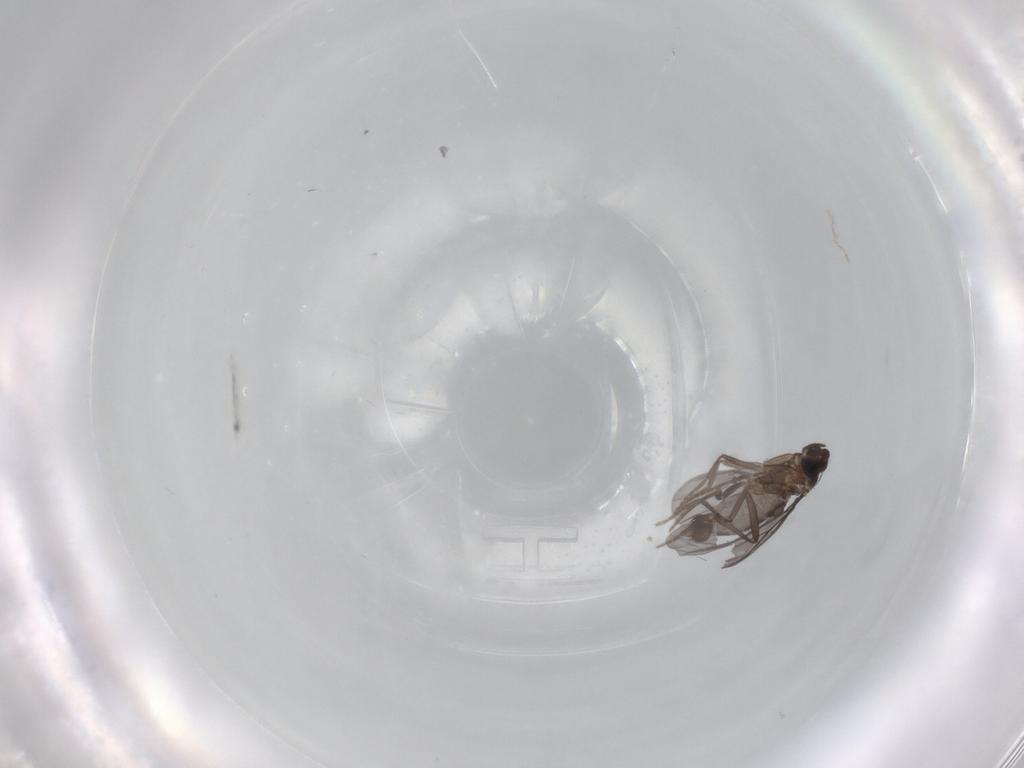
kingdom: Animalia
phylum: Arthropoda
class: Insecta
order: Diptera
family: Phoridae
